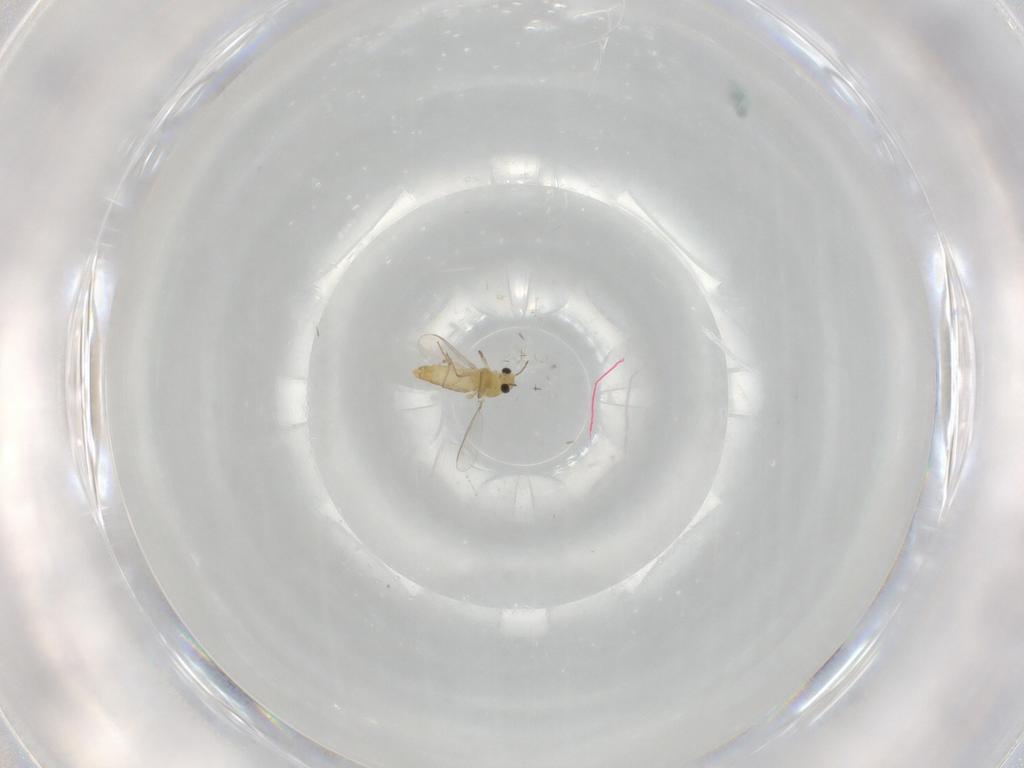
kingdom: Animalia
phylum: Arthropoda
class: Insecta
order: Diptera
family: Chironomidae
